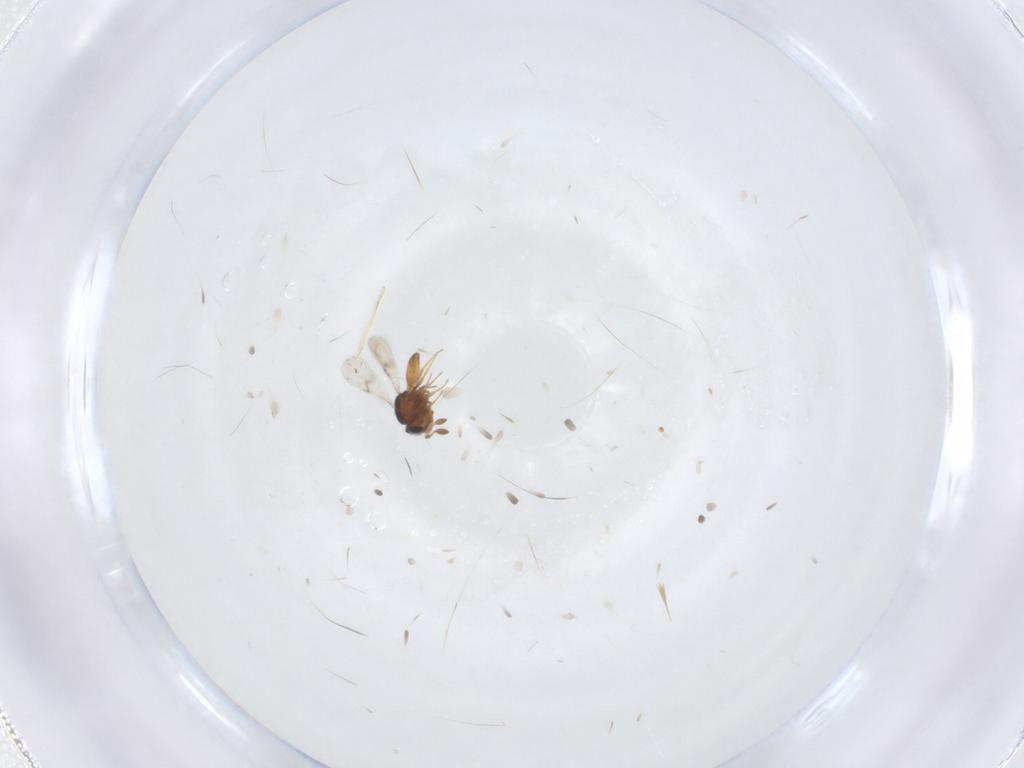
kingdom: Animalia
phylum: Arthropoda
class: Insecta
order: Hymenoptera
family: Scelionidae
